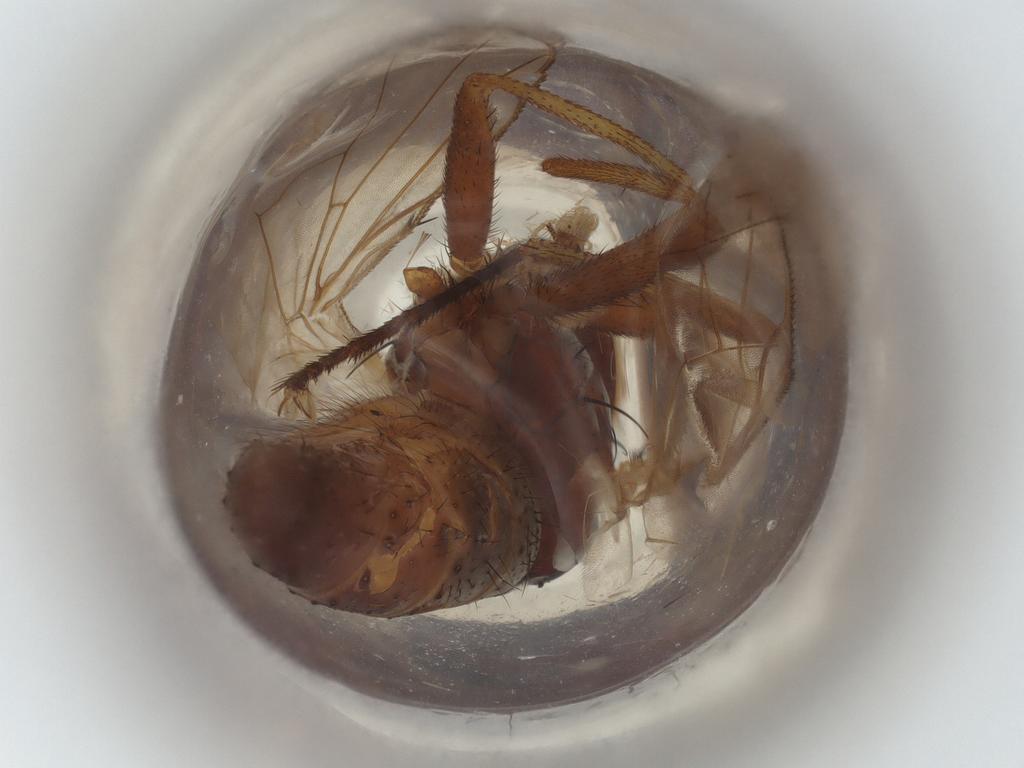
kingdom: Animalia
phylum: Arthropoda
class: Insecta
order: Diptera
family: Muscidae
